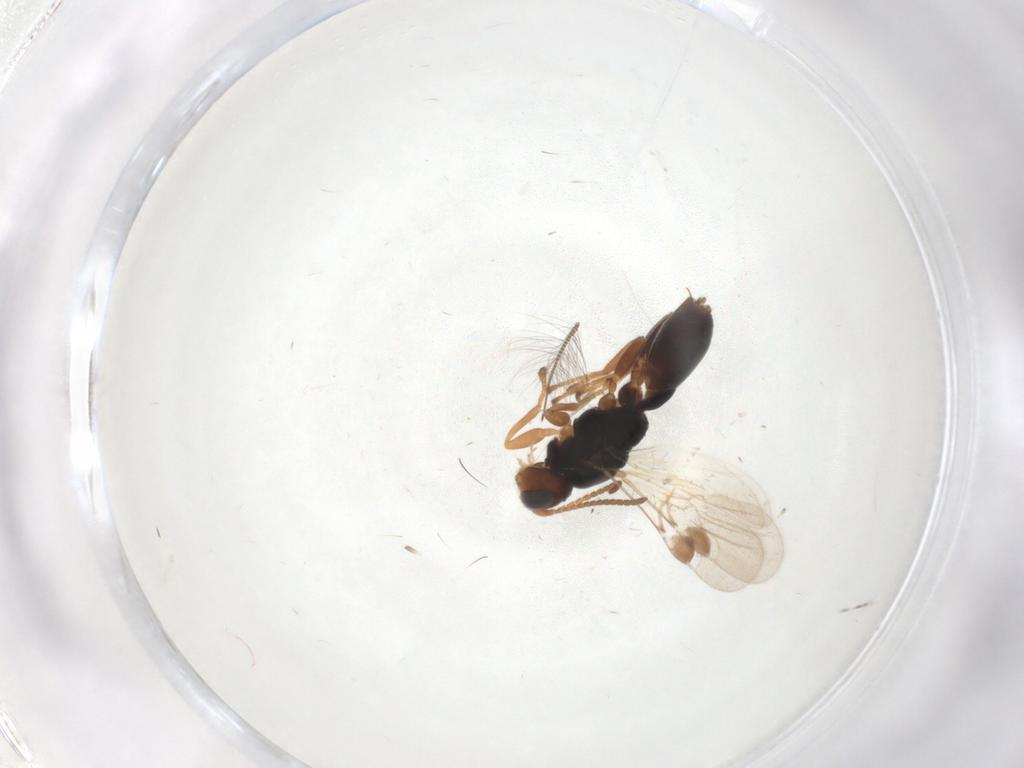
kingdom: Animalia
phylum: Arthropoda
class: Insecta
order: Hymenoptera
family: Braconidae
